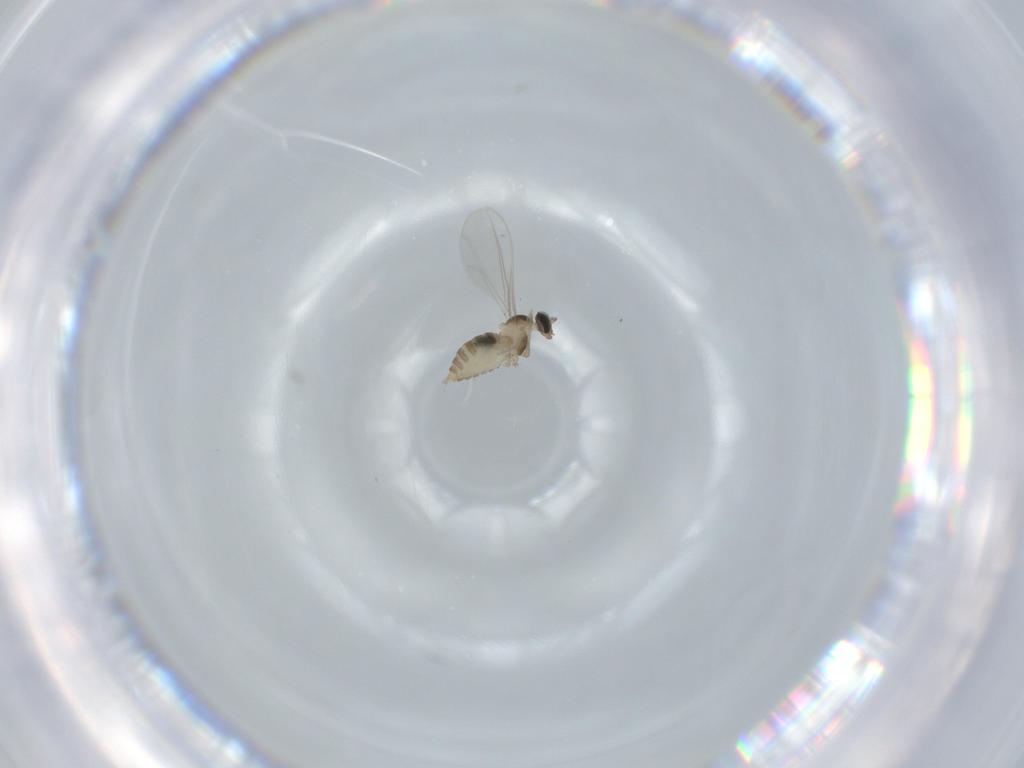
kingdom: Animalia
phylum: Arthropoda
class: Insecta
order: Diptera
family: Cecidomyiidae
